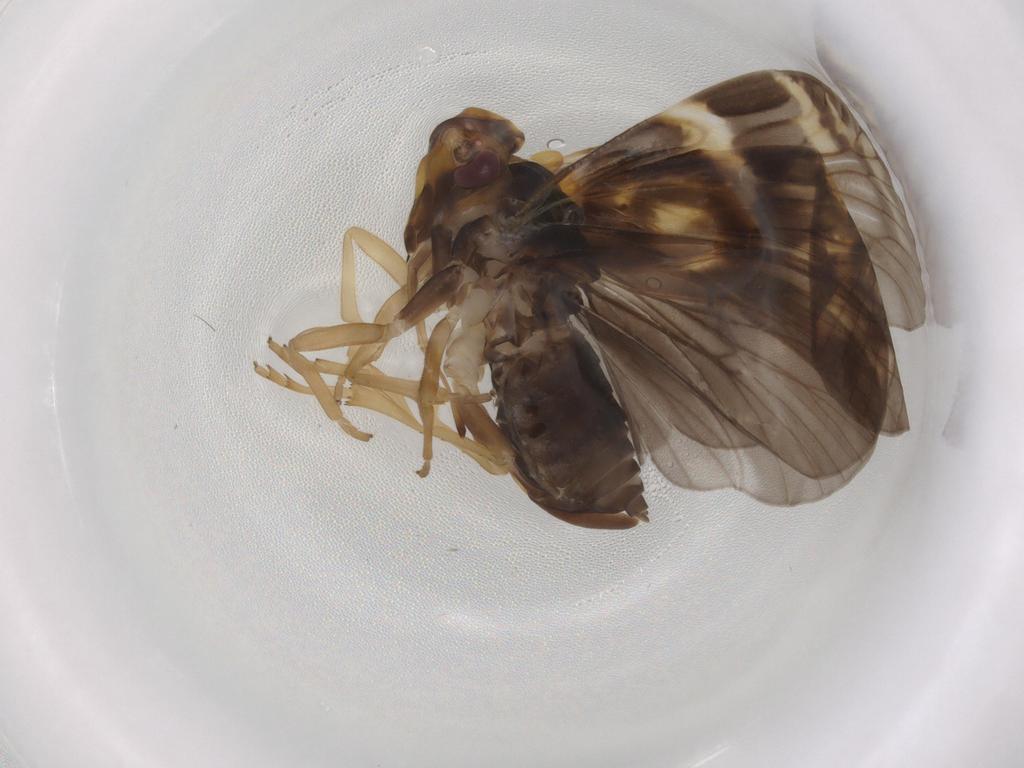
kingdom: Animalia
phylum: Arthropoda
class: Insecta
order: Hemiptera
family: Cixiidae
